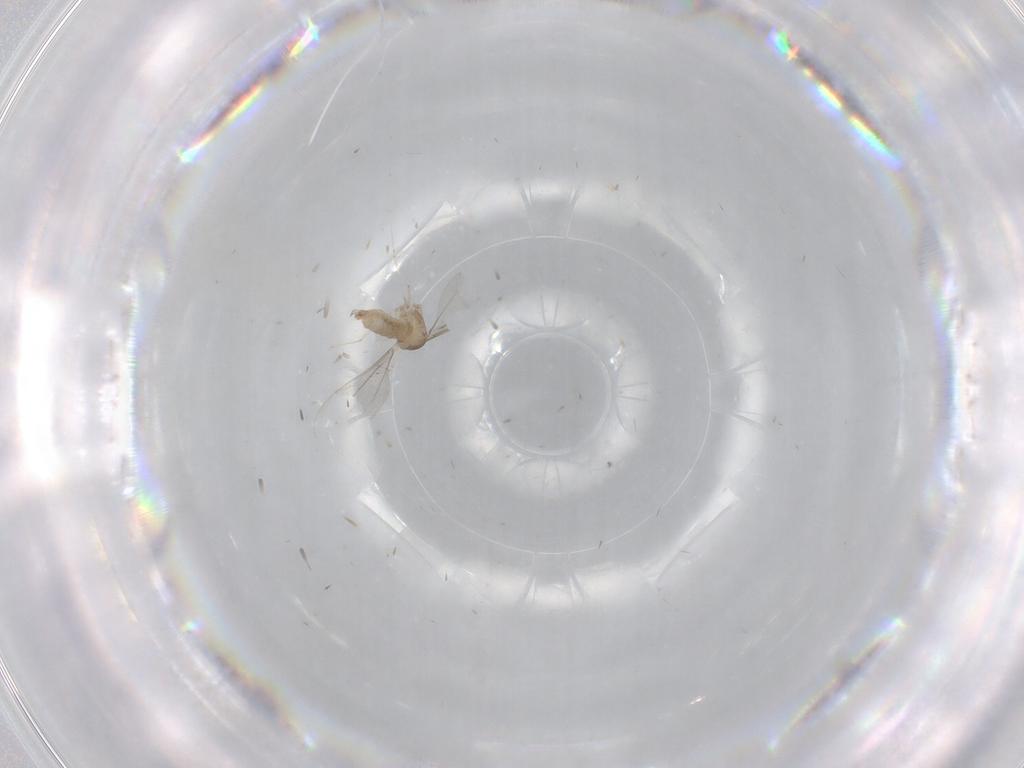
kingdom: Animalia
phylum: Arthropoda
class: Insecta
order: Diptera
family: Cecidomyiidae
